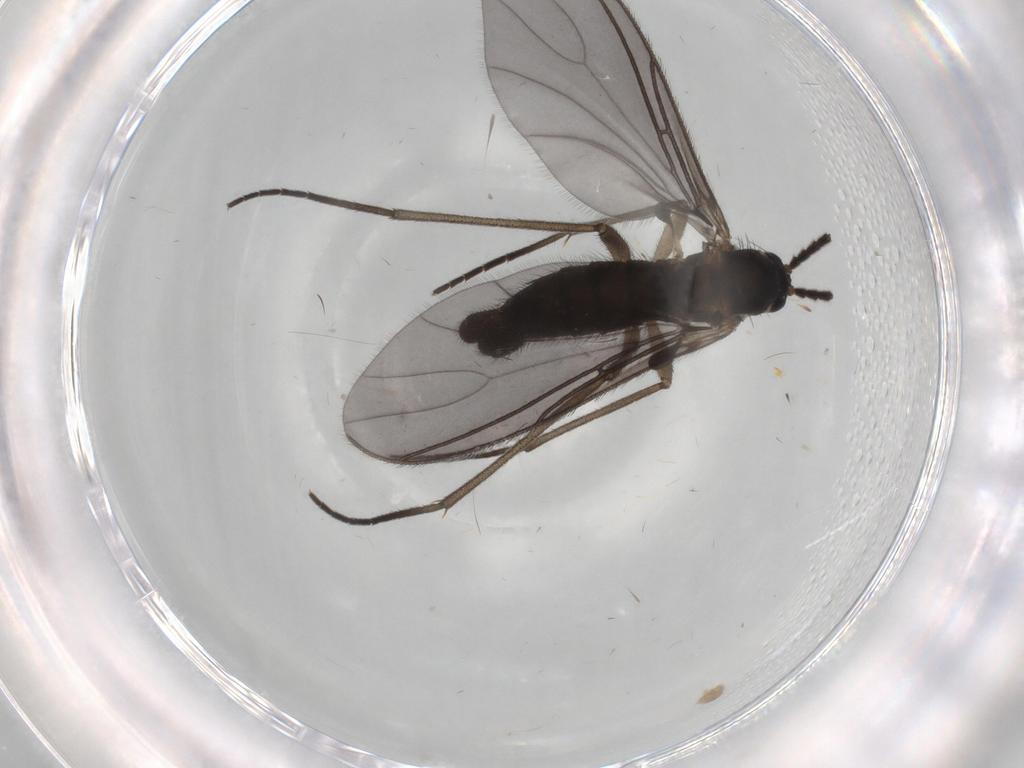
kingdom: Animalia
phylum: Arthropoda
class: Insecta
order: Diptera
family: Sciaridae
